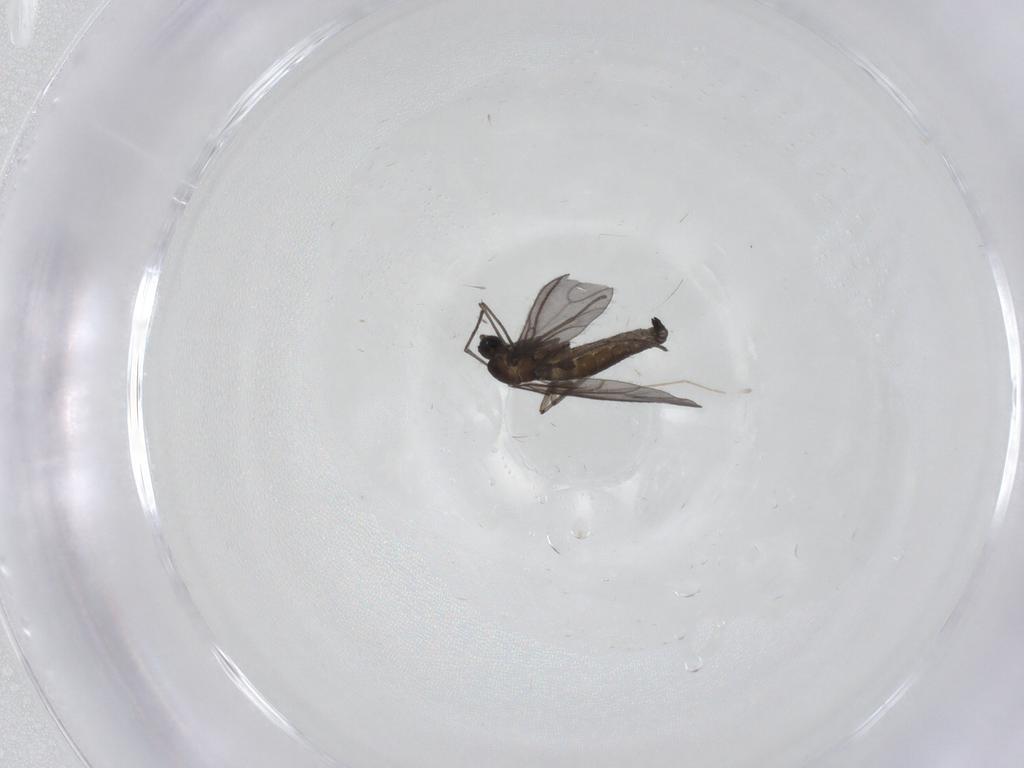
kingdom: Animalia
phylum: Arthropoda
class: Insecta
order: Diptera
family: Sciaridae
